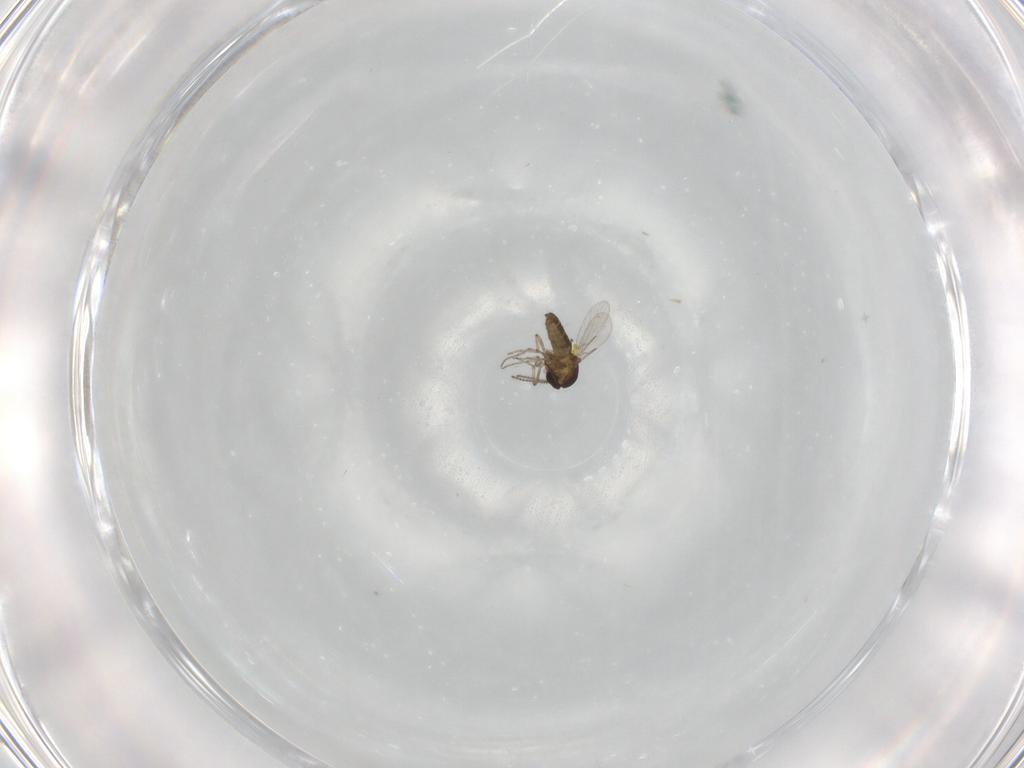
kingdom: Animalia
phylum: Arthropoda
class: Insecta
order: Diptera
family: Ceratopogonidae
